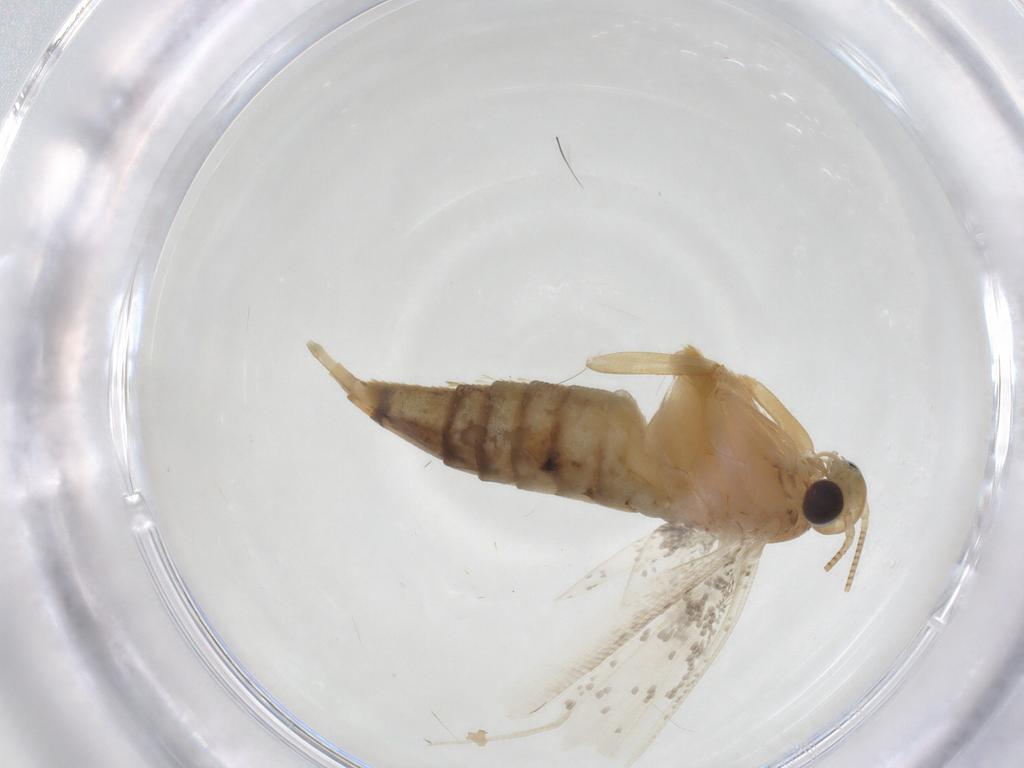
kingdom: Animalia
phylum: Arthropoda
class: Insecta
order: Lepidoptera
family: Tineidae
